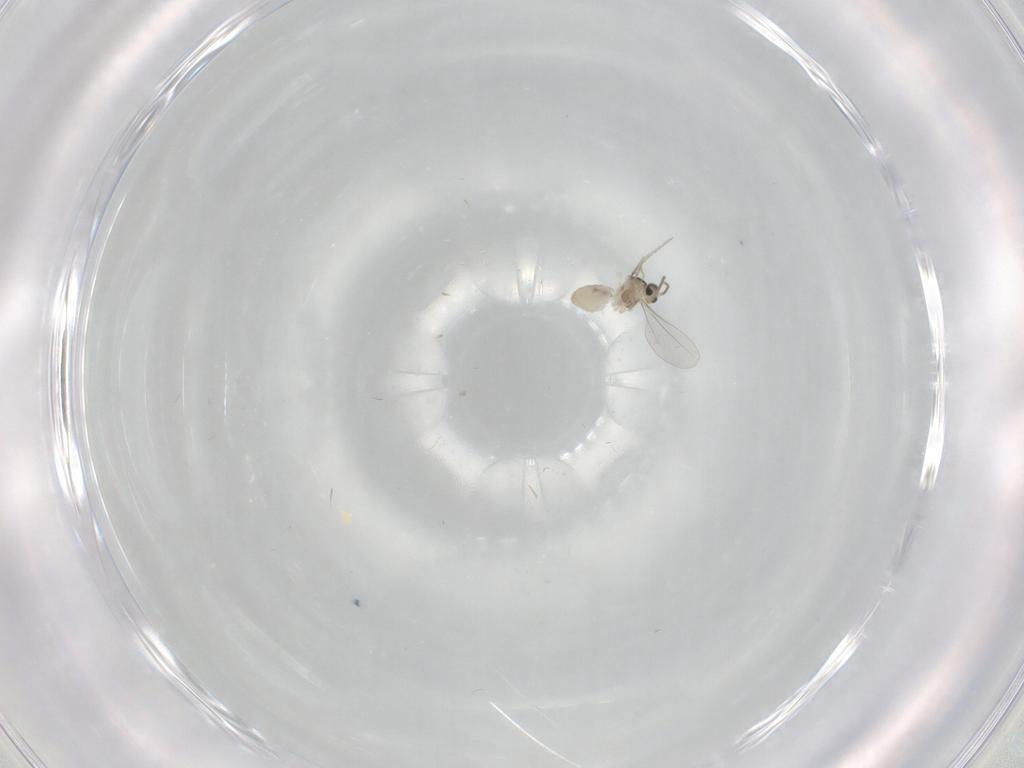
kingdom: Animalia
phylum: Arthropoda
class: Insecta
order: Diptera
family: Cecidomyiidae
